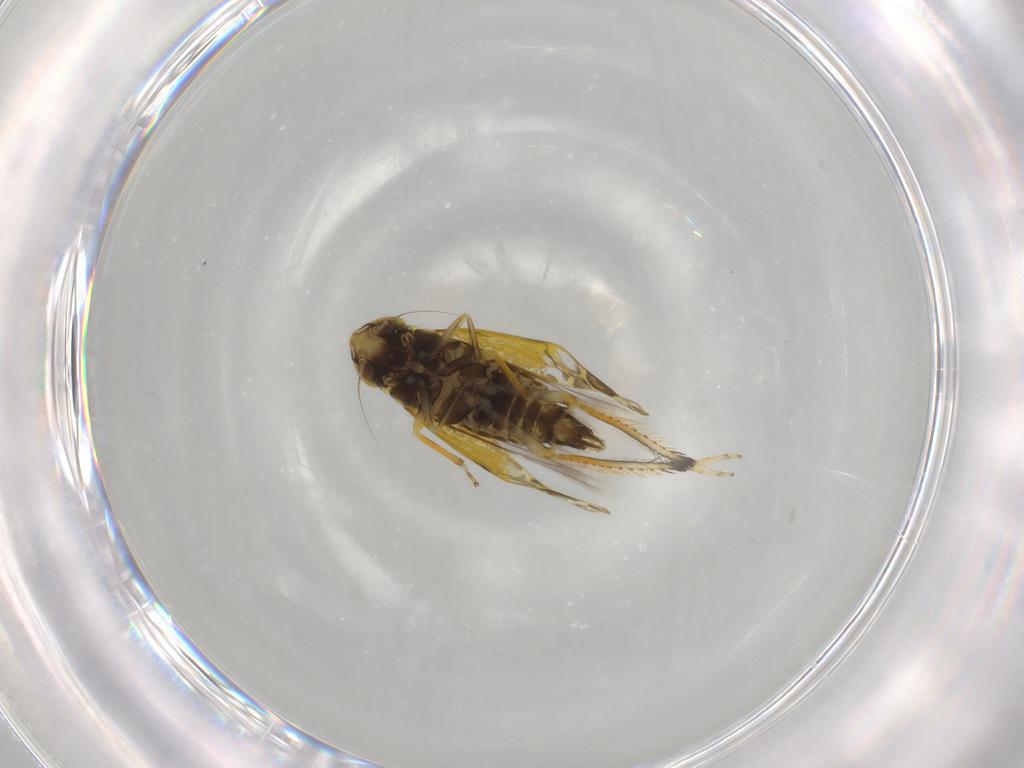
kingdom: Animalia
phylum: Arthropoda
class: Insecta
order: Hemiptera
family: Cicadellidae
